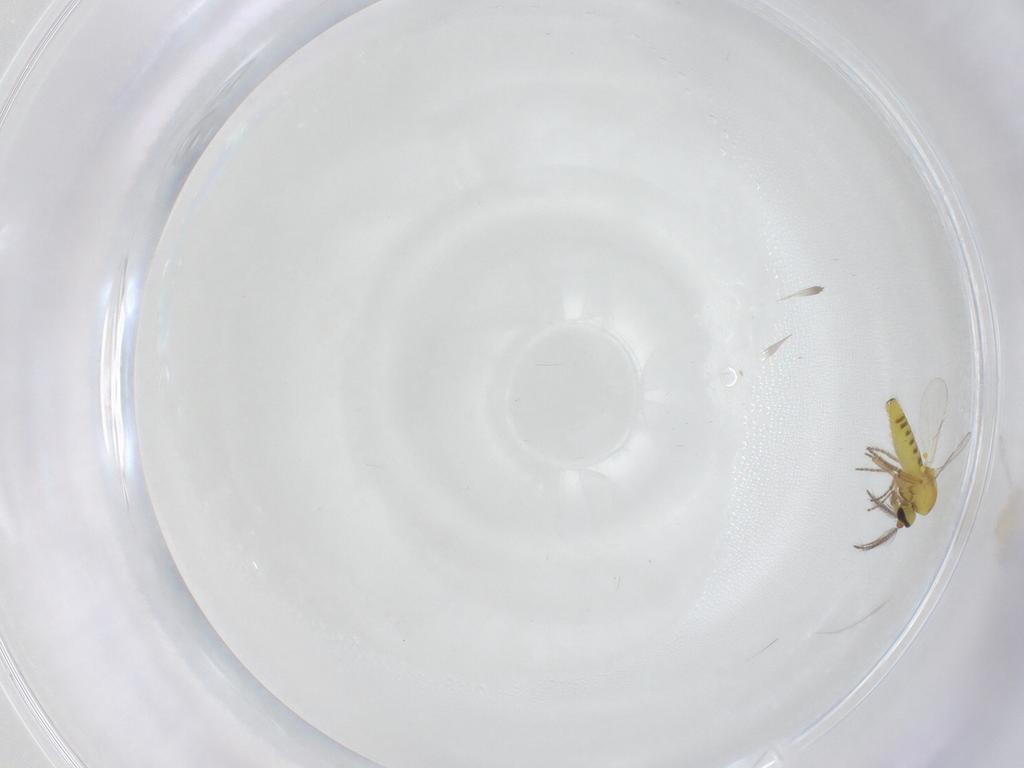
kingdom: Animalia
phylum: Arthropoda
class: Insecta
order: Diptera
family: Ceratopogonidae
